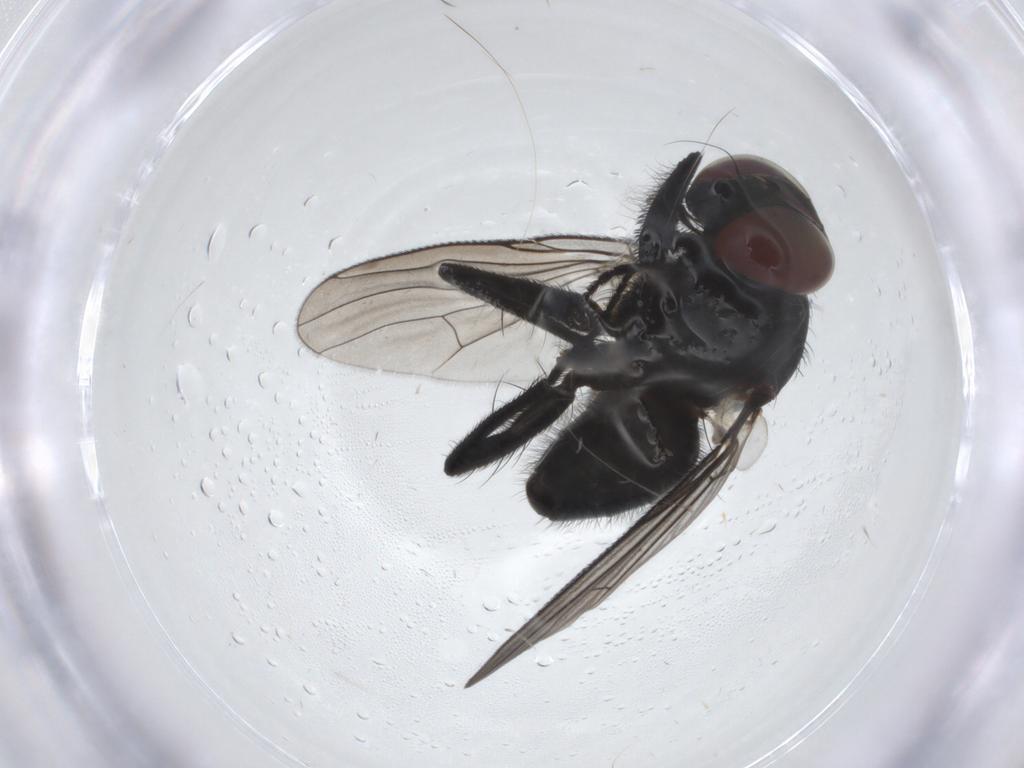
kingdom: Animalia
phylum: Arthropoda
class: Insecta
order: Diptera
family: Muscidae
